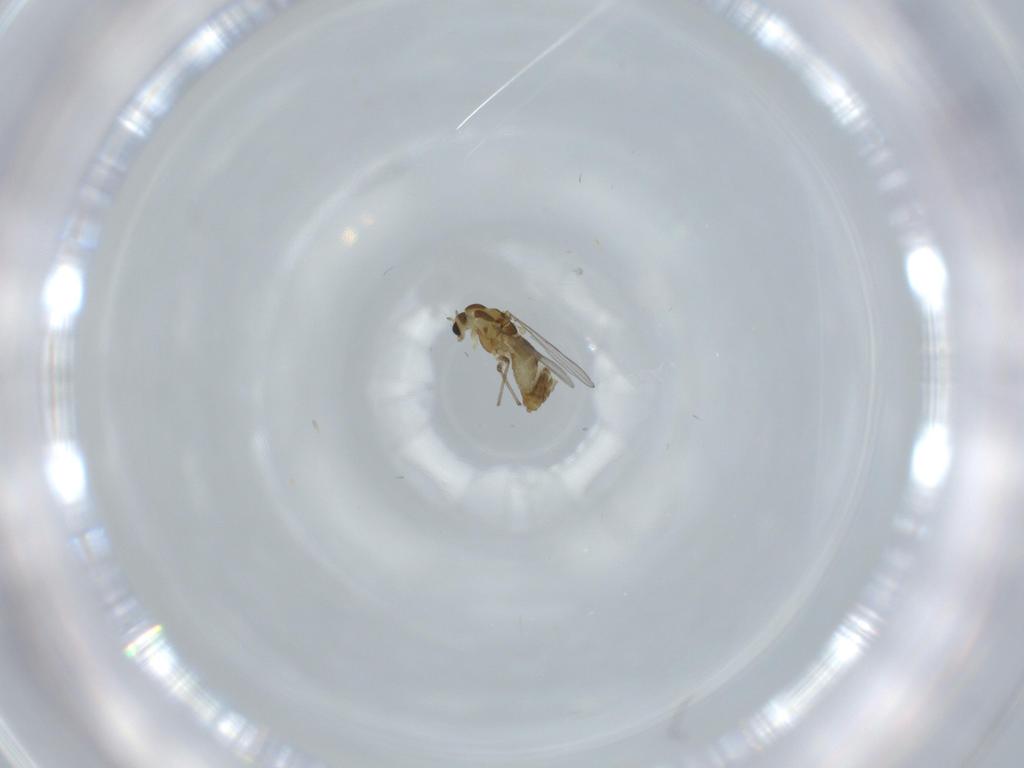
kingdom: Animalia
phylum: Arthropoda
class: Insecta
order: Diptera
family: Chironomidae
